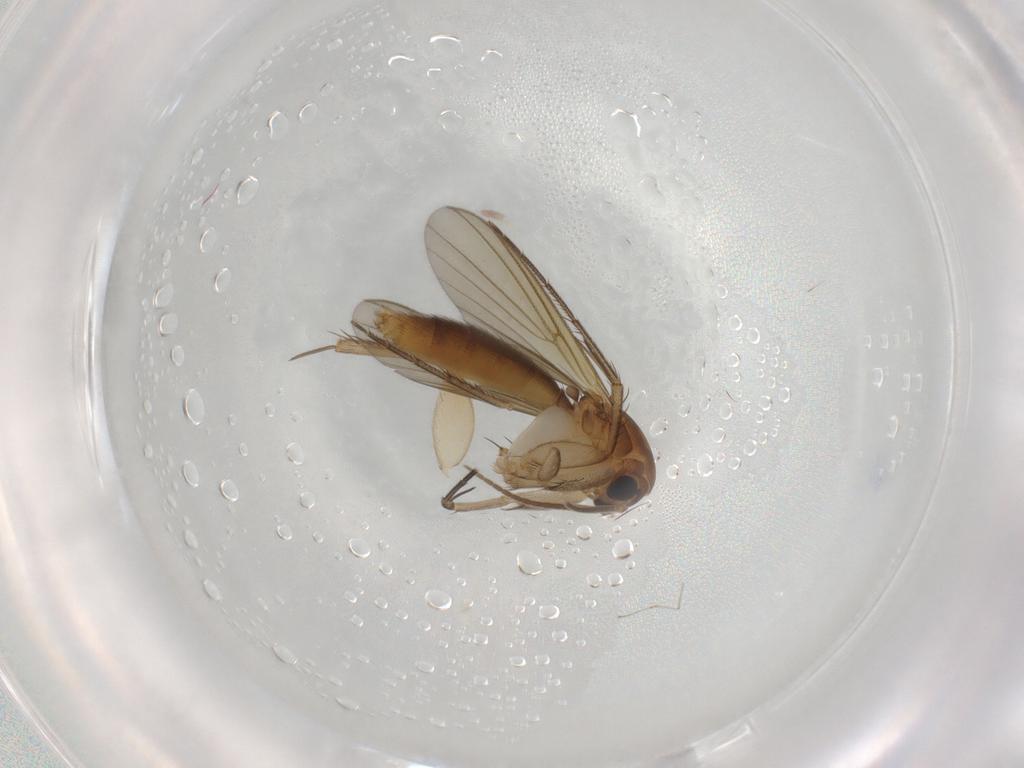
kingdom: Animalia
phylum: Arthropoda
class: Insecta
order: Diptera
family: Mycetophilidae
